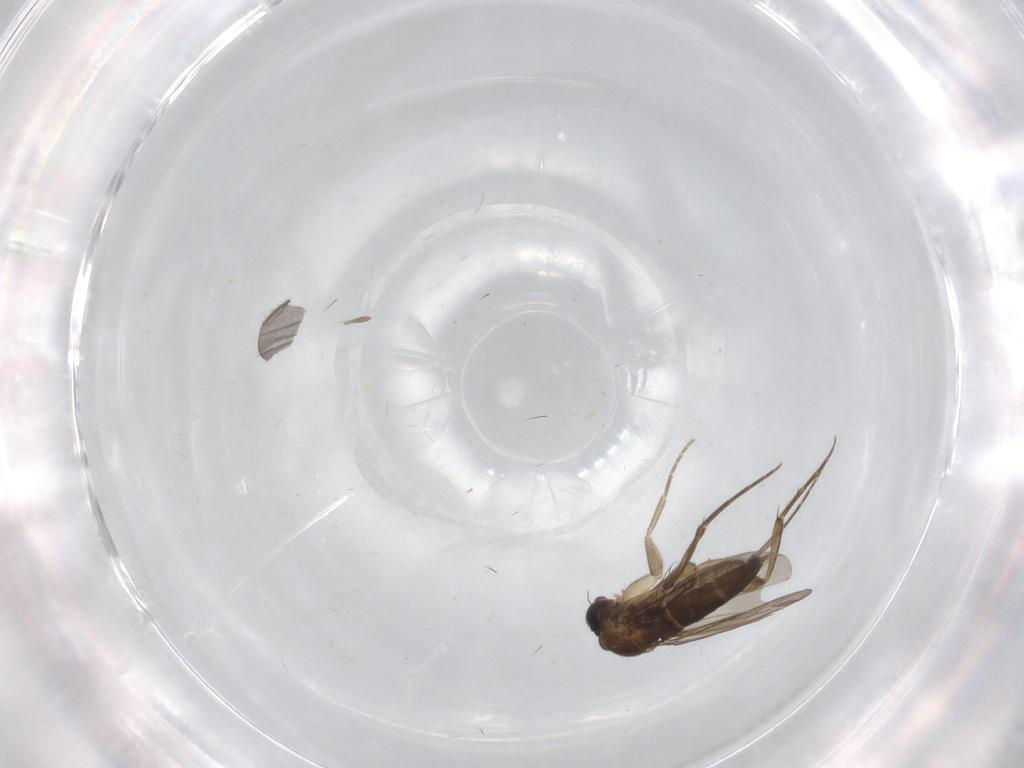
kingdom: Animalia
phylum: Arthropoda
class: Insecta
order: Diptera
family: Phoridae
